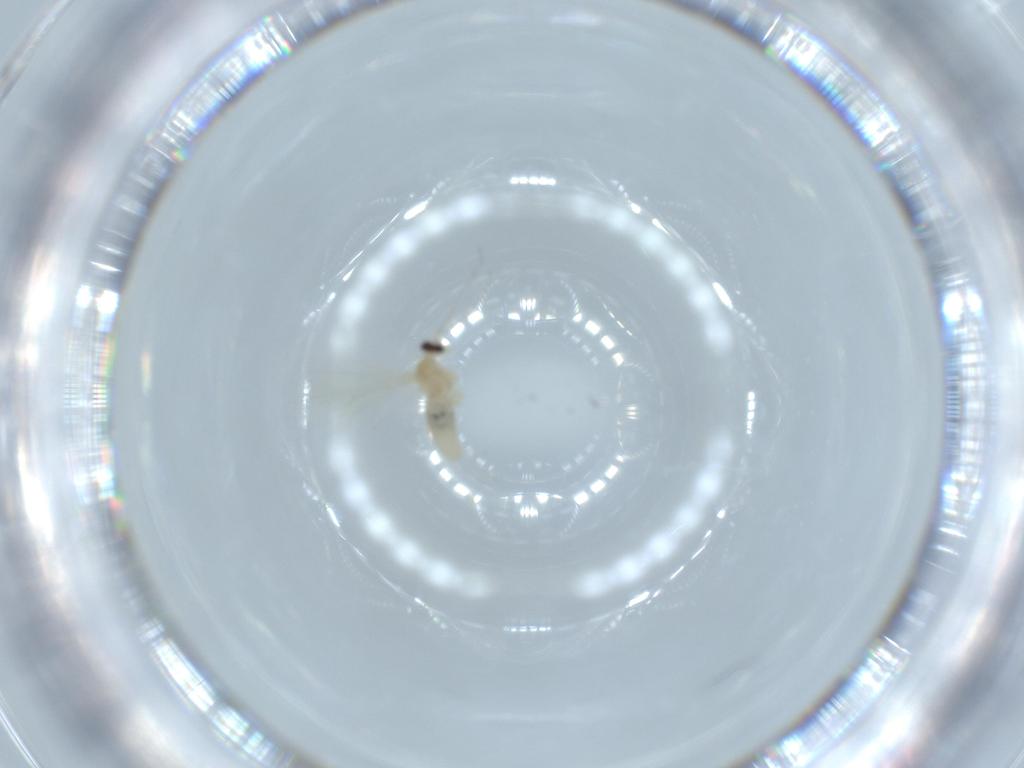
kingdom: Animalia
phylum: Arthropoda
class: Insecta
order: Diptera
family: Cecidomyiidae
